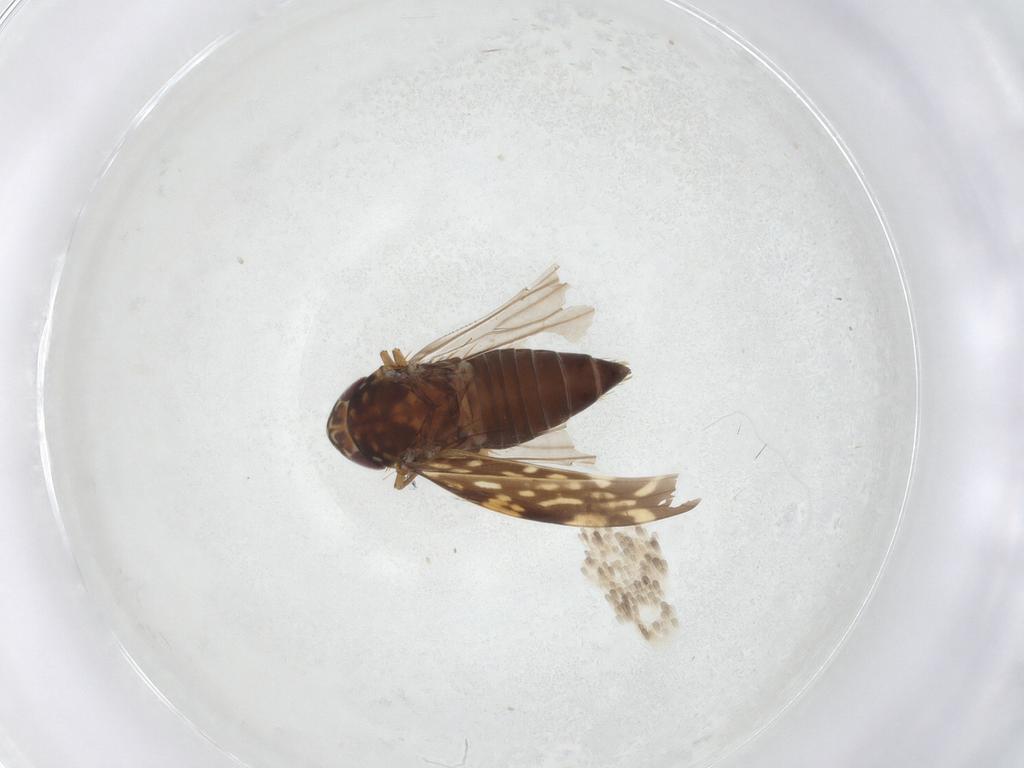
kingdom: Animalia
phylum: Arthropoda
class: Insecta
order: Hemiptera
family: Cicadellidae
